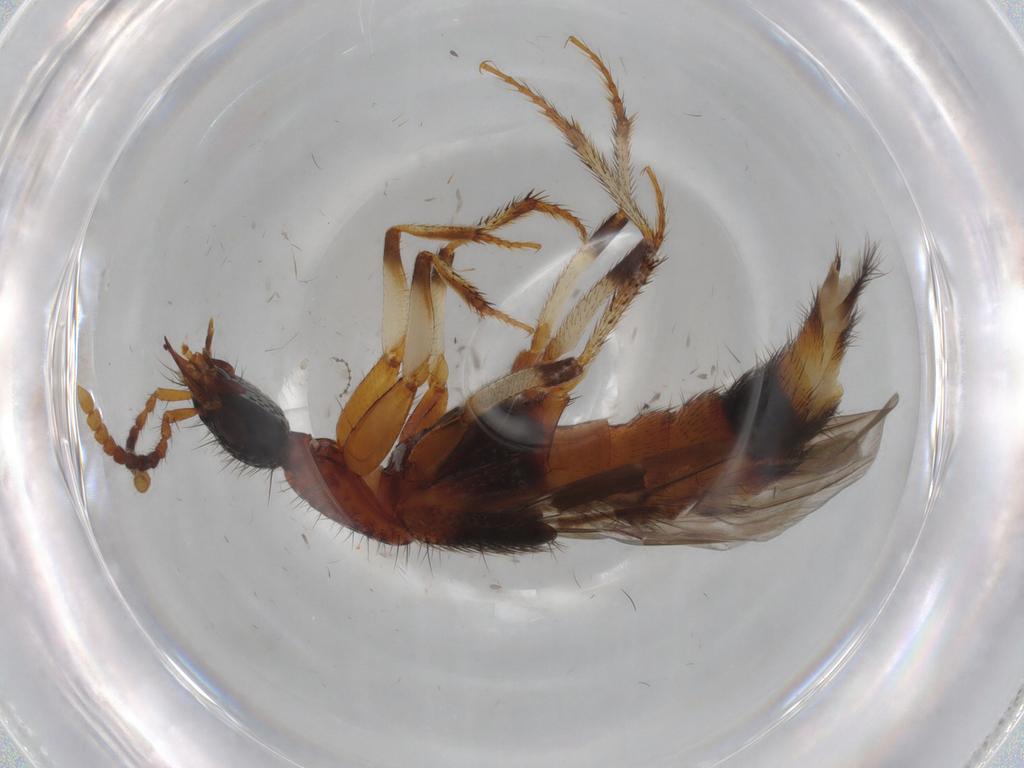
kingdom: Animalia
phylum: Arthropoda
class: Insecta
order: Coleoptera
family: Staphylinidae
